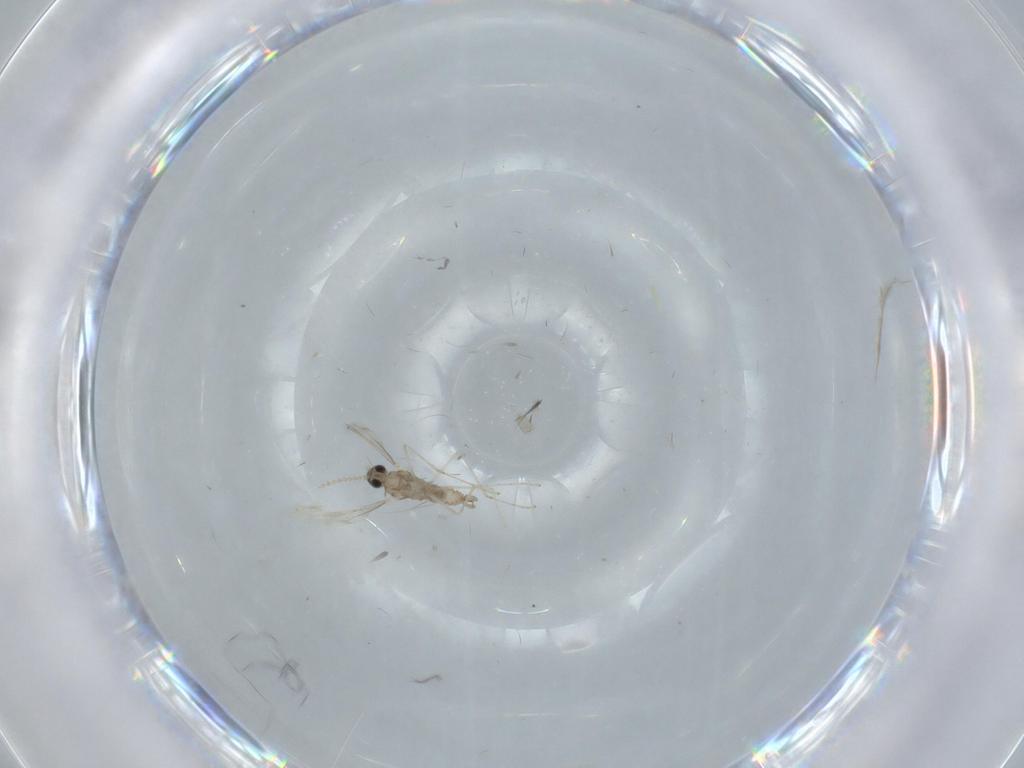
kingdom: Animalia
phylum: Arthropoda
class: Insecta
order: Diptera
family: Cecidomyiidae
